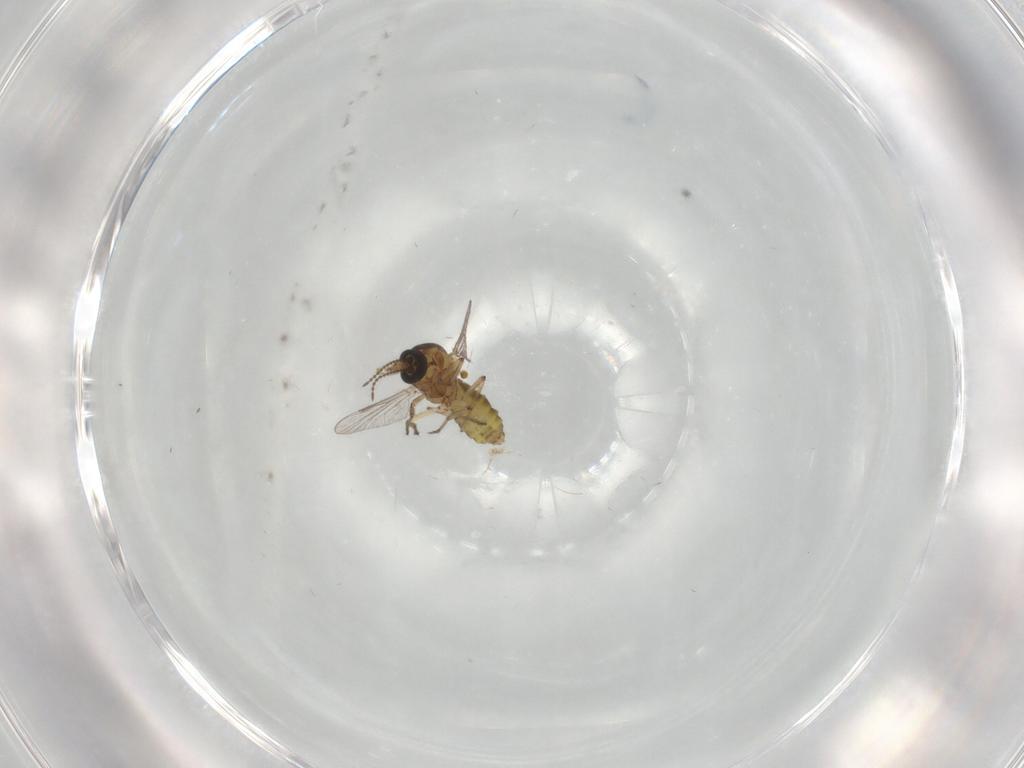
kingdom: Animalia
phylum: Arthropoda
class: Insecta
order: Diptera
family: Ceratopogonidae
